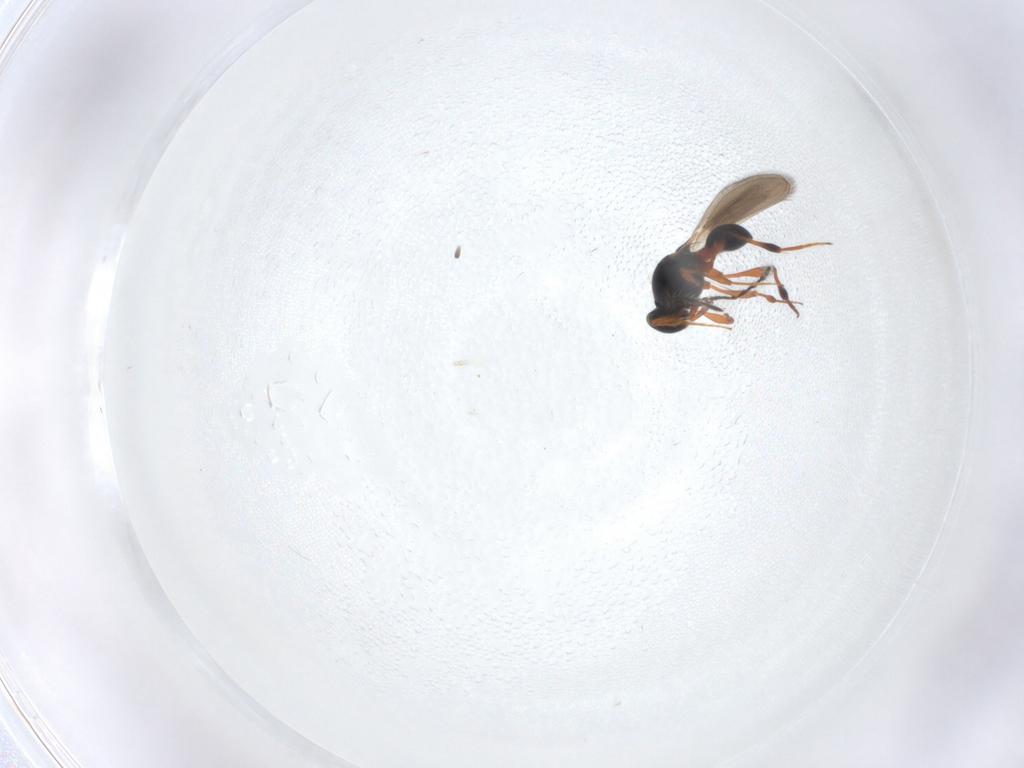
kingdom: Animalia
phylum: Arthropoda
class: Insecta
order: Hymenoptera
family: Platygastridae
